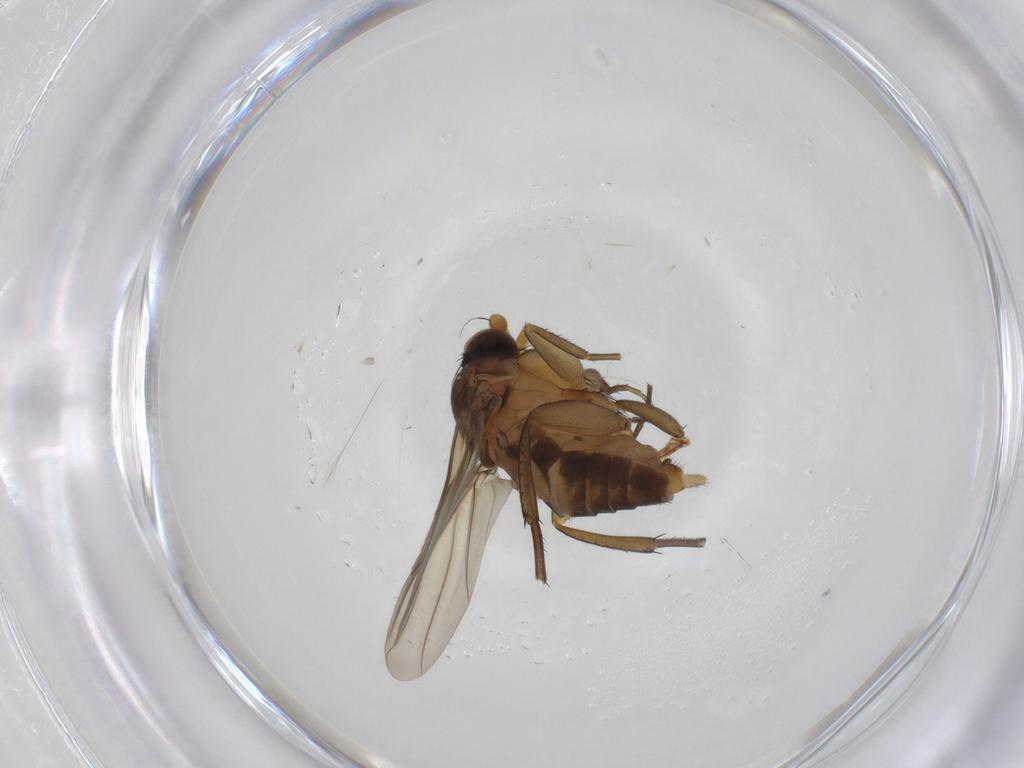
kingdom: Animalia
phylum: Arthropoda
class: Insecta
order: Diptera
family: Phoridae
